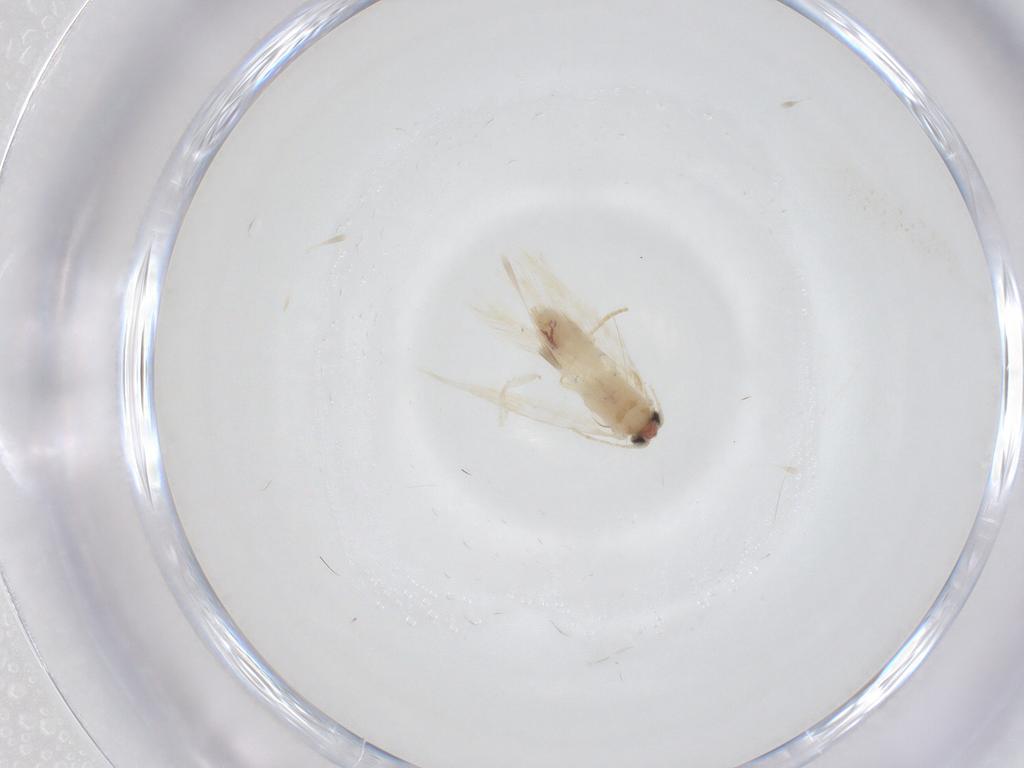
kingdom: Animalia
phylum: Arthropoda
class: Insecta
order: Lepidoptera
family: Nepticulidae
